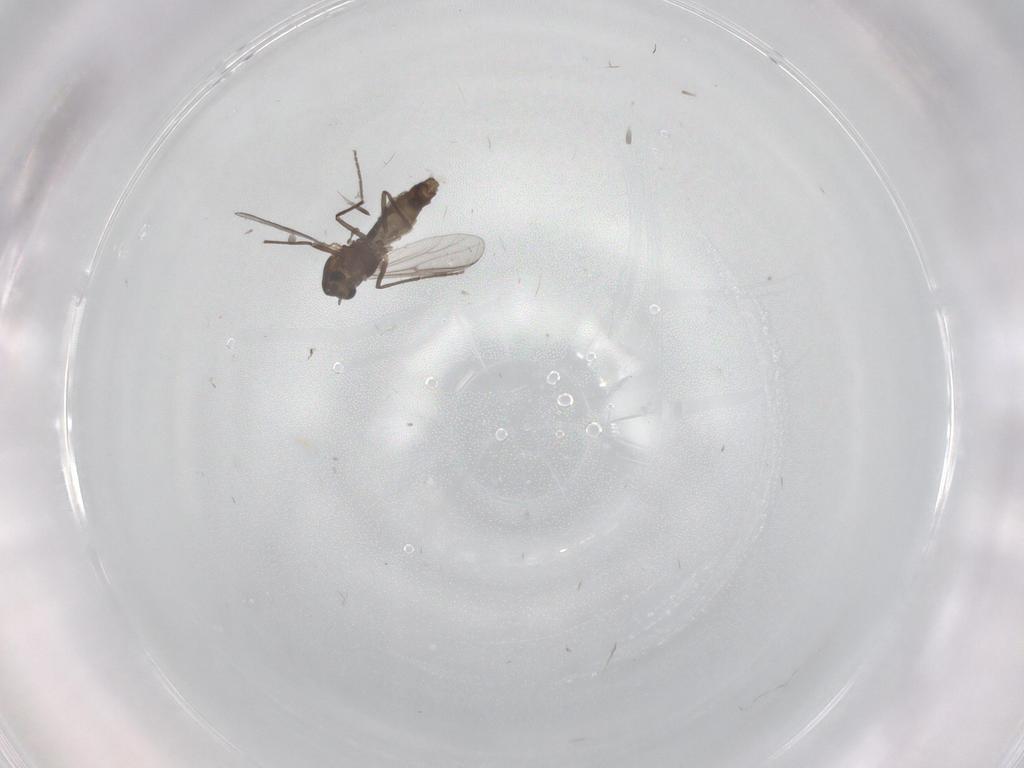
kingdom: Animalia
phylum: Arthropoda
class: Insecta
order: Diptera
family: Chironomidae
